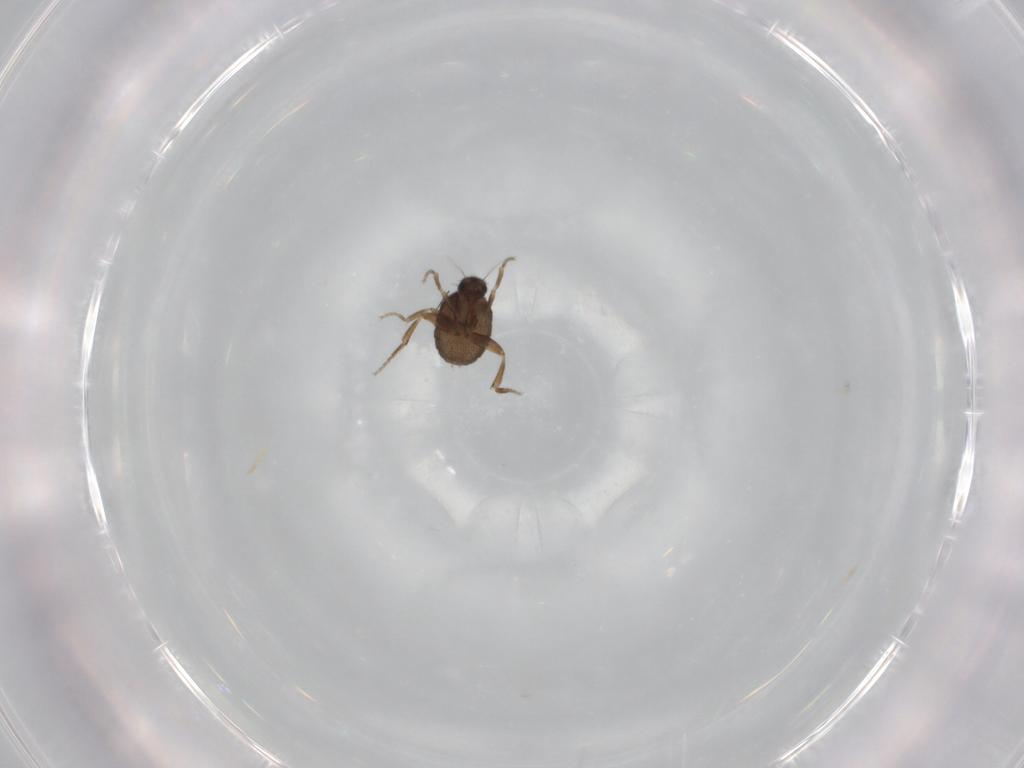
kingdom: Animalia
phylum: Arthropoda
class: Insecta
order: Diptera
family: Phoridae
